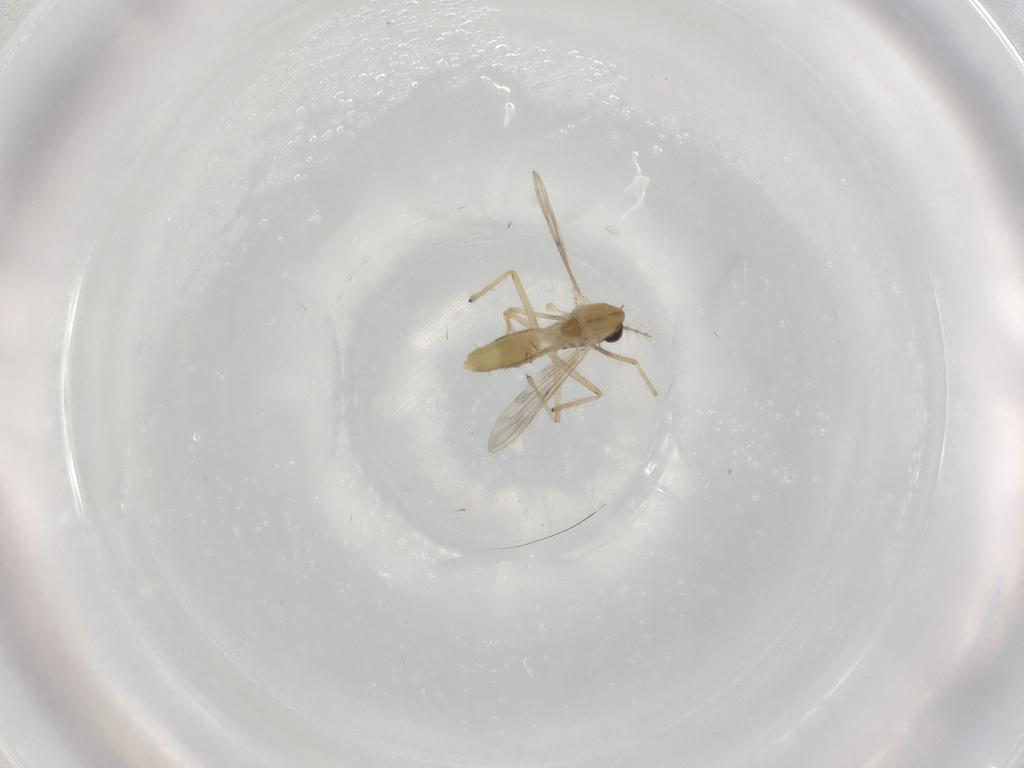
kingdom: Animalia
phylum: Arthropoda
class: Insecta
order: Diptera
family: Chironomidae
